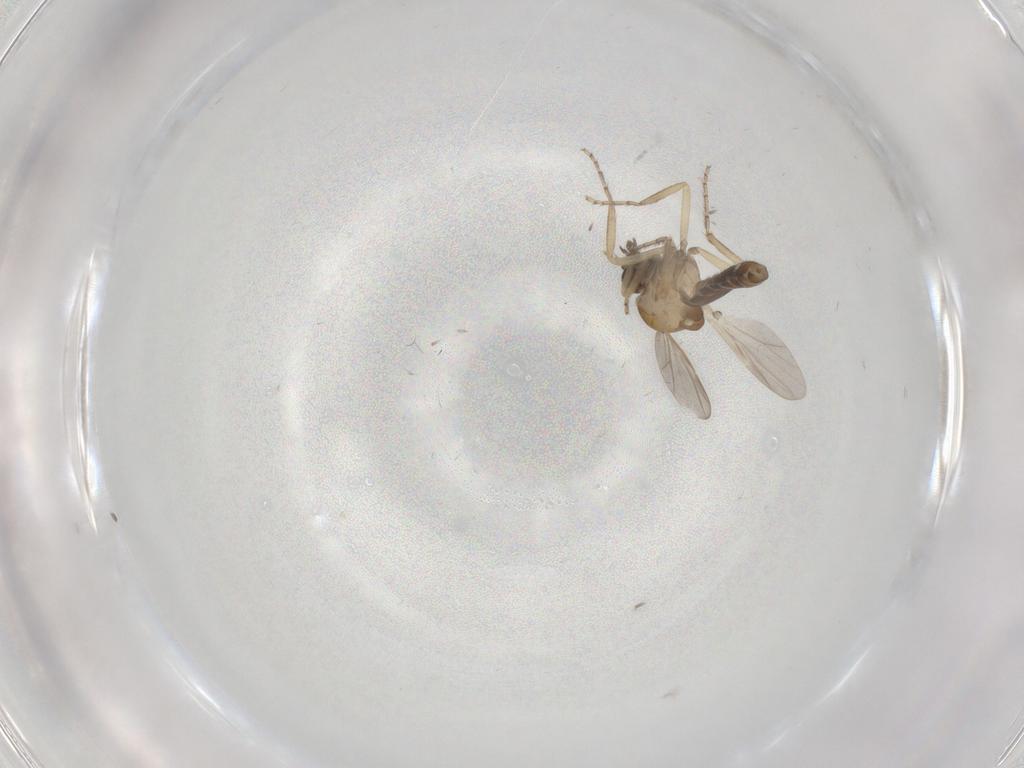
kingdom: Animalia
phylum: Arthropoda
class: Insecta
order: Diptera
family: Ceratopogonidae
